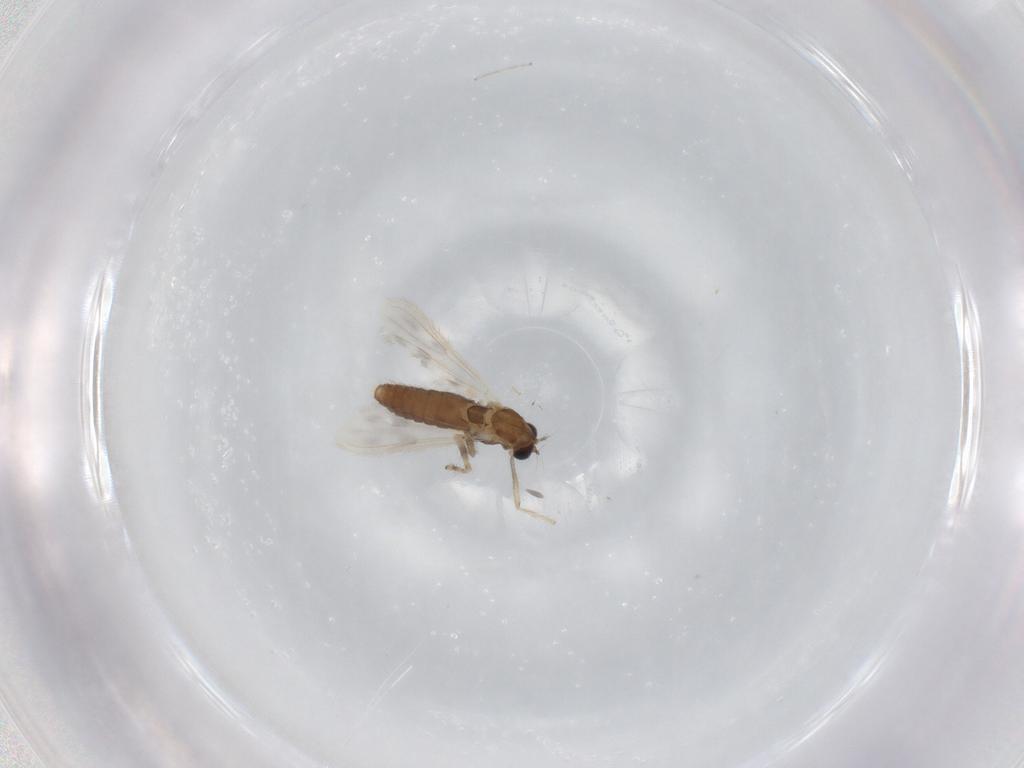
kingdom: Animalia
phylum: Arthropoda
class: Insecta
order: Diptera
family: Chironomidae
